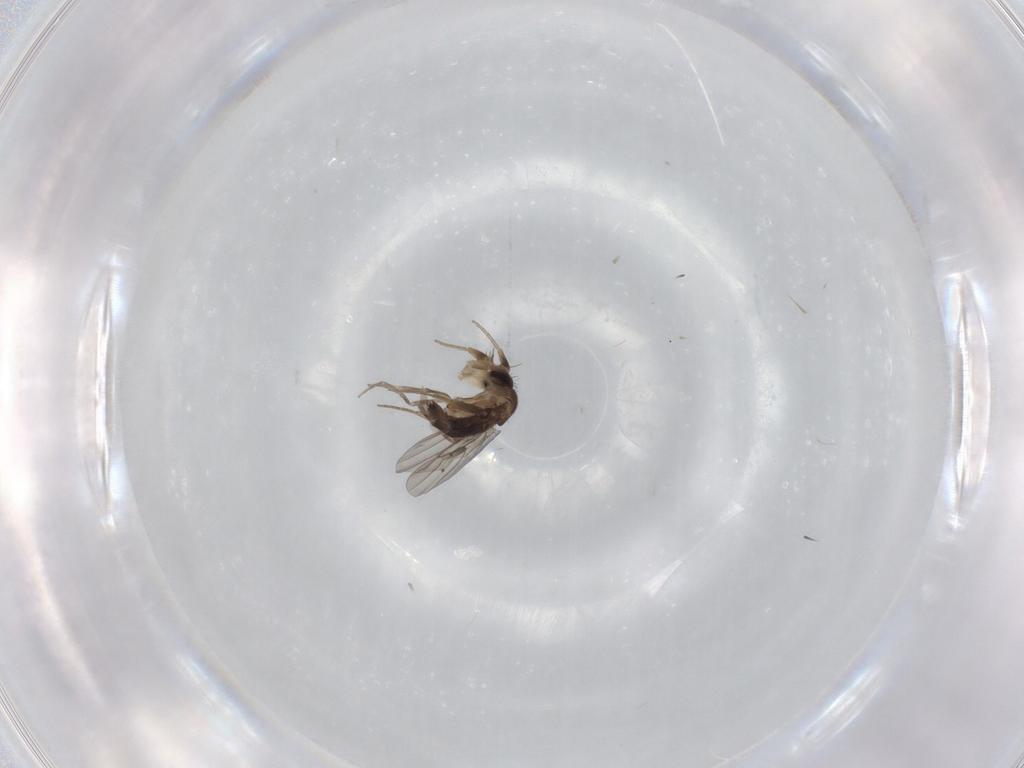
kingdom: Animalia
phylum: Arthropoda
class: Insecta
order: Diptera
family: Phoridae
